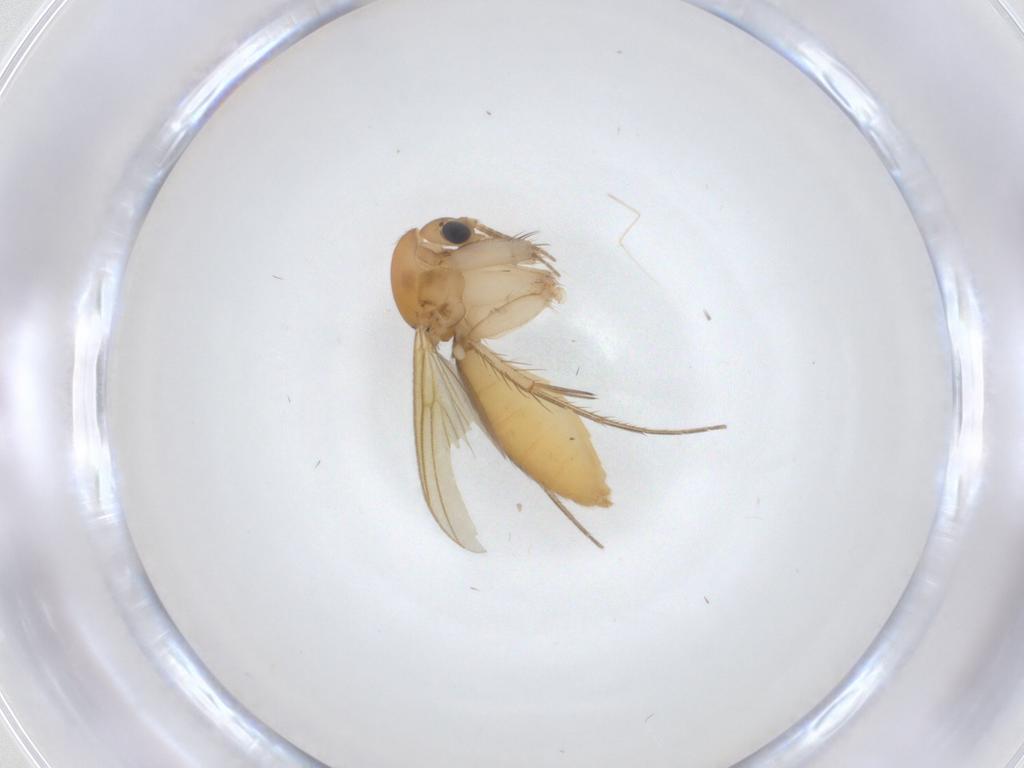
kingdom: Animalia
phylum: Arthropoda
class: Insecta
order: Diptera
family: Mycetophilidae
